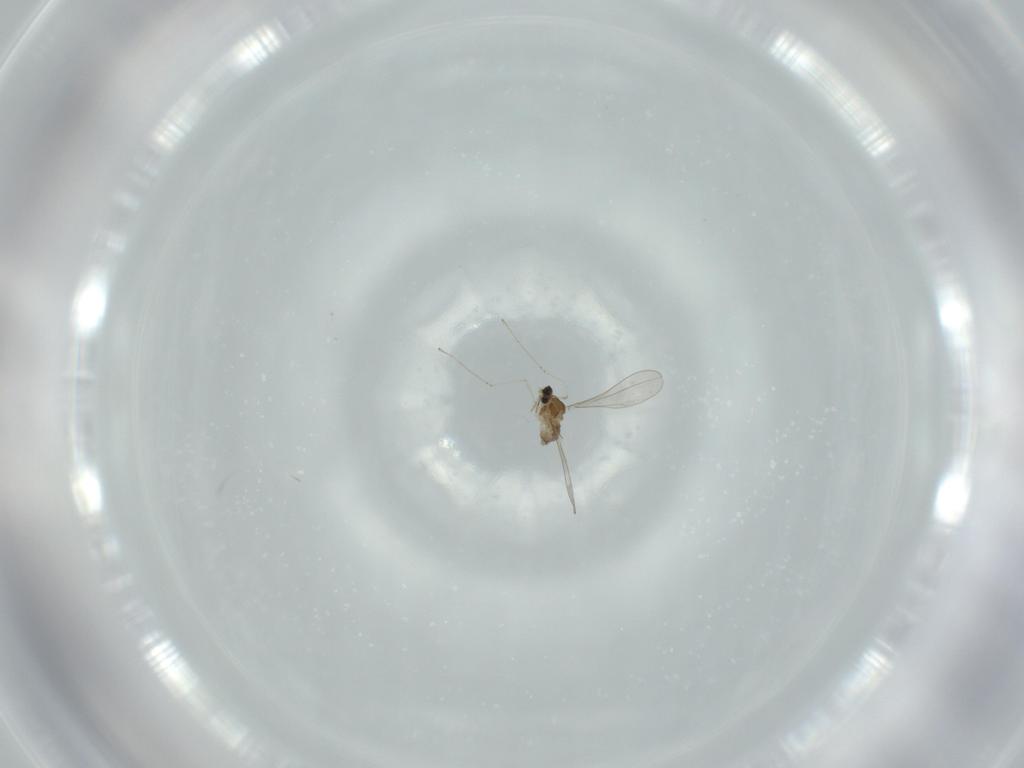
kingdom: Animalia
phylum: Arthropoda
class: Insecta
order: Diptera
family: Cecidomyiidae
